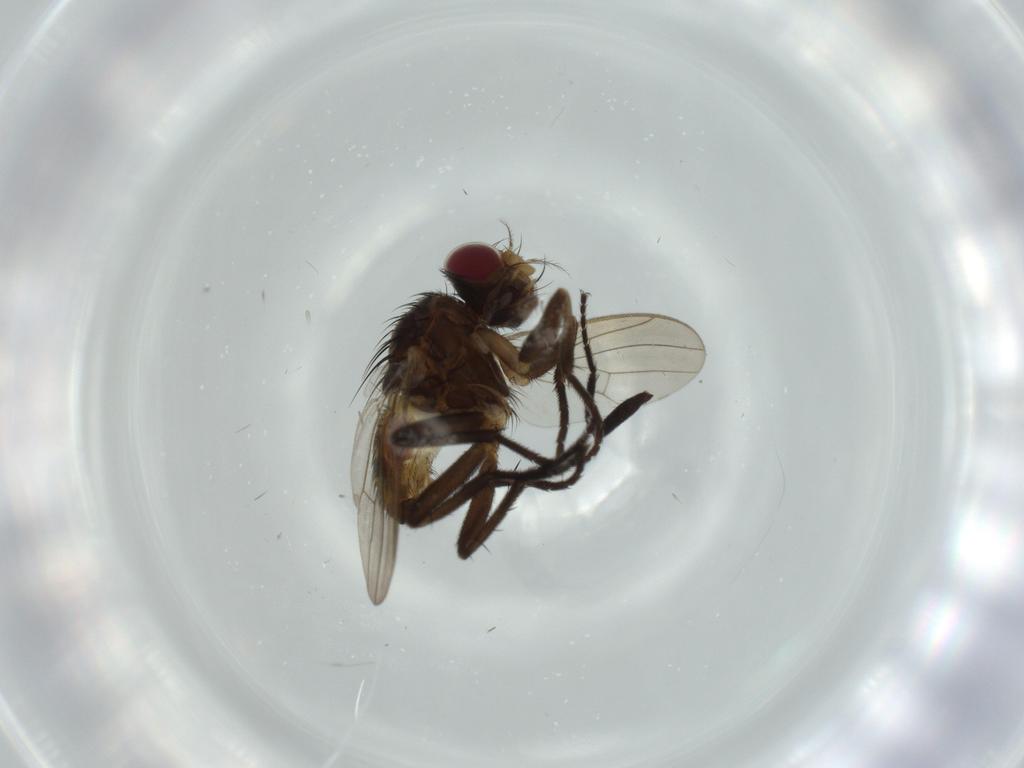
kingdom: Animalia
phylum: Arthropoda
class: Insecta
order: Diptera
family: Anthomyiidae
